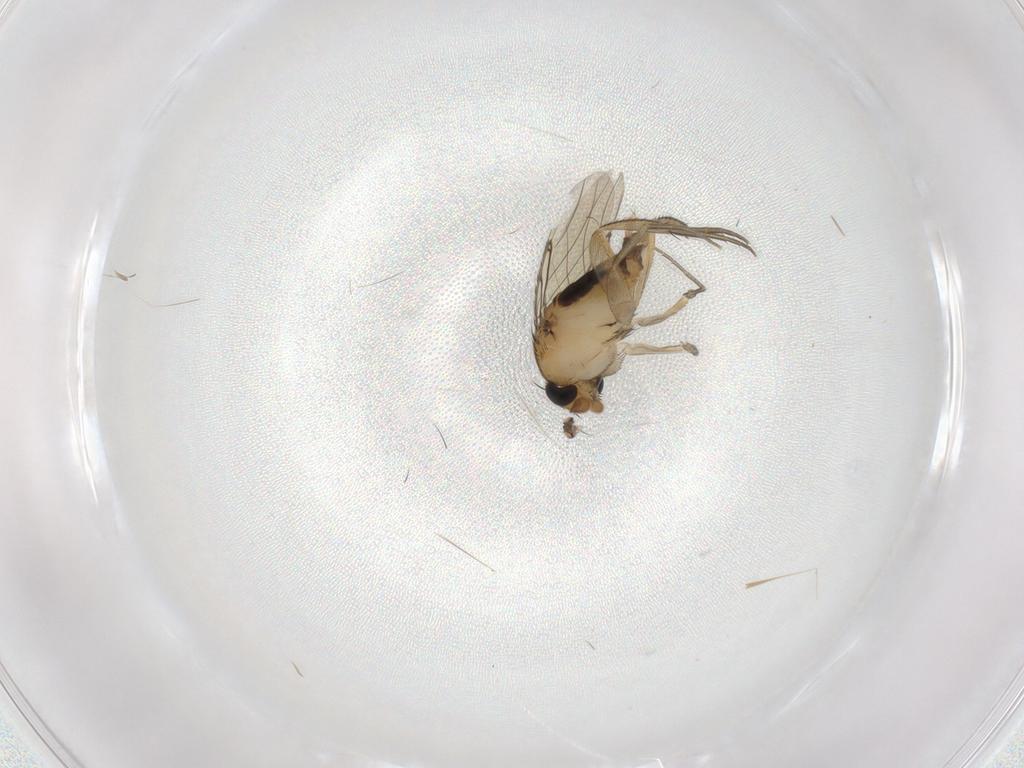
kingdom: Animalia
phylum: Arthropoda
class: Insecta
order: Diptera
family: Phoridae
